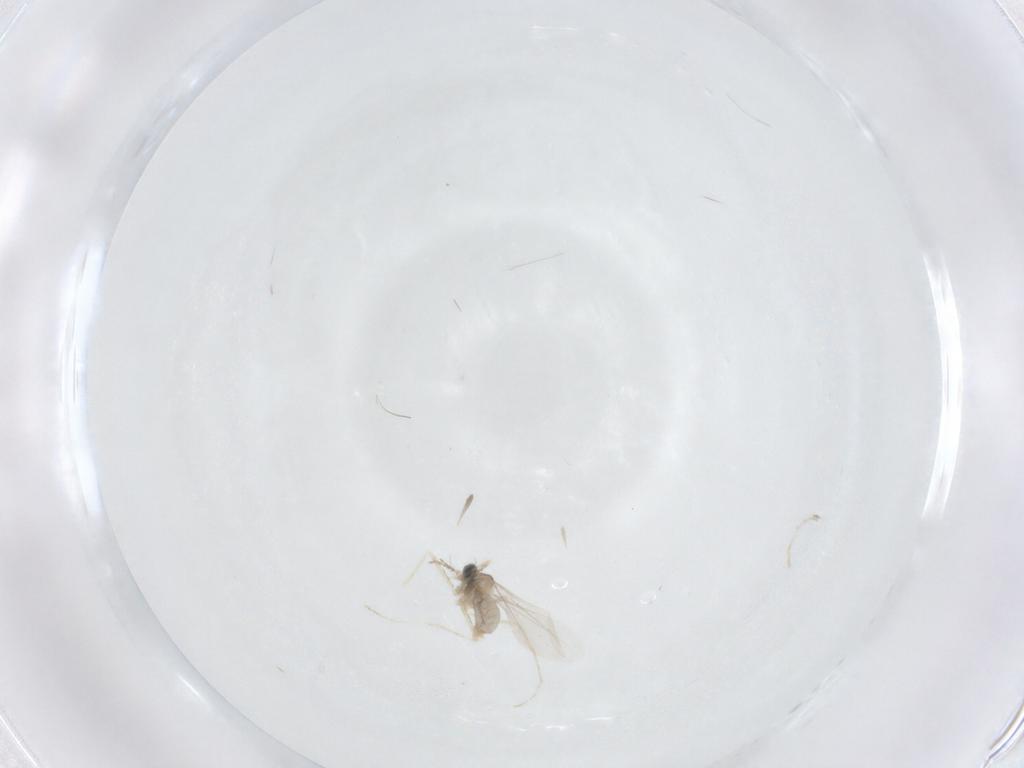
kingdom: Animalia
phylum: Arthropoda
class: Insecta
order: Diptera
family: Cecidomyiidae
